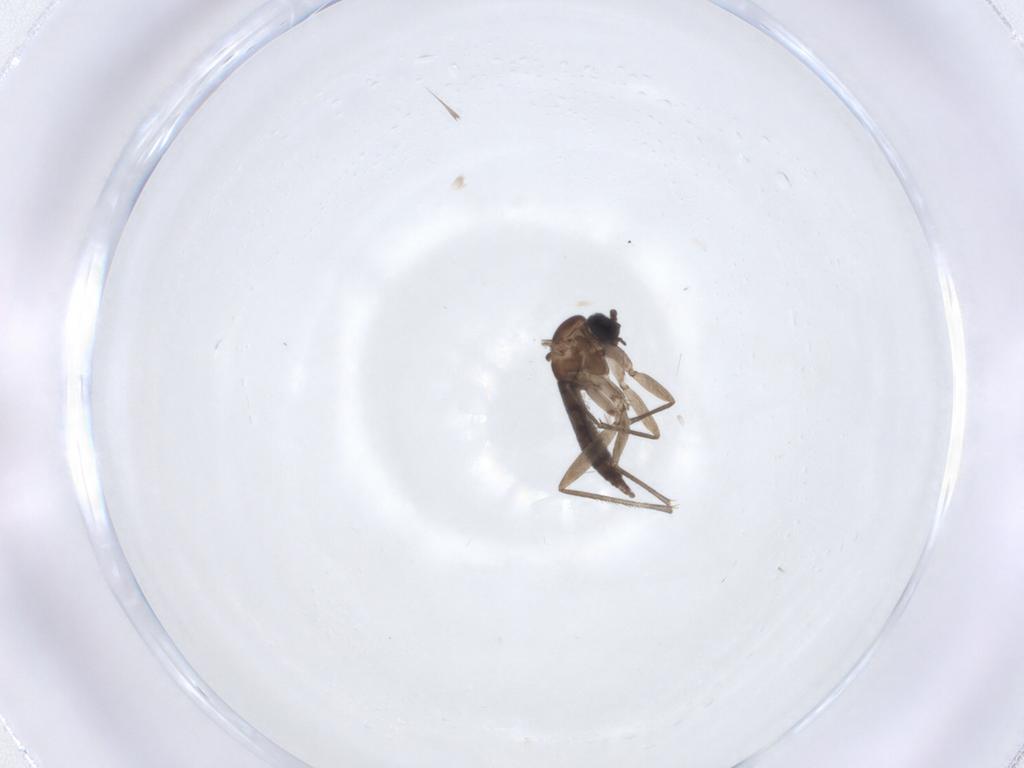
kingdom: Animalia
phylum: Arthropoda
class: Insecta
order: Diptera
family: Sciaridae
